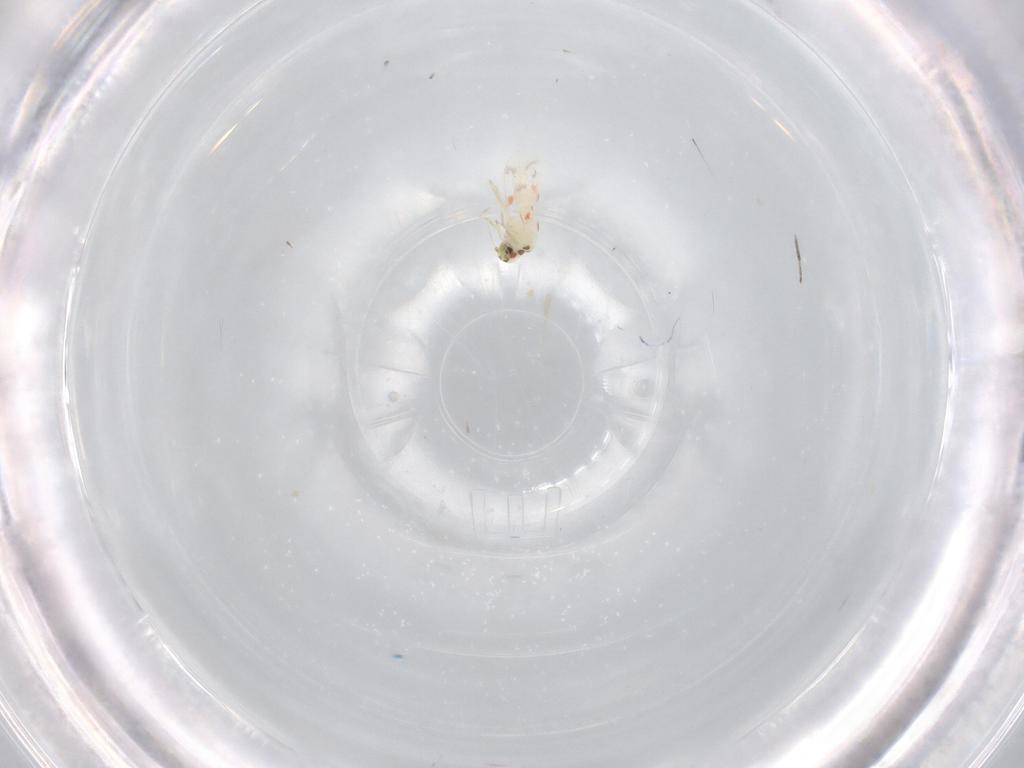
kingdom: Animalia
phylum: Arthropoda
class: Insecta
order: Hemiptera
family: Aleyrodidae
